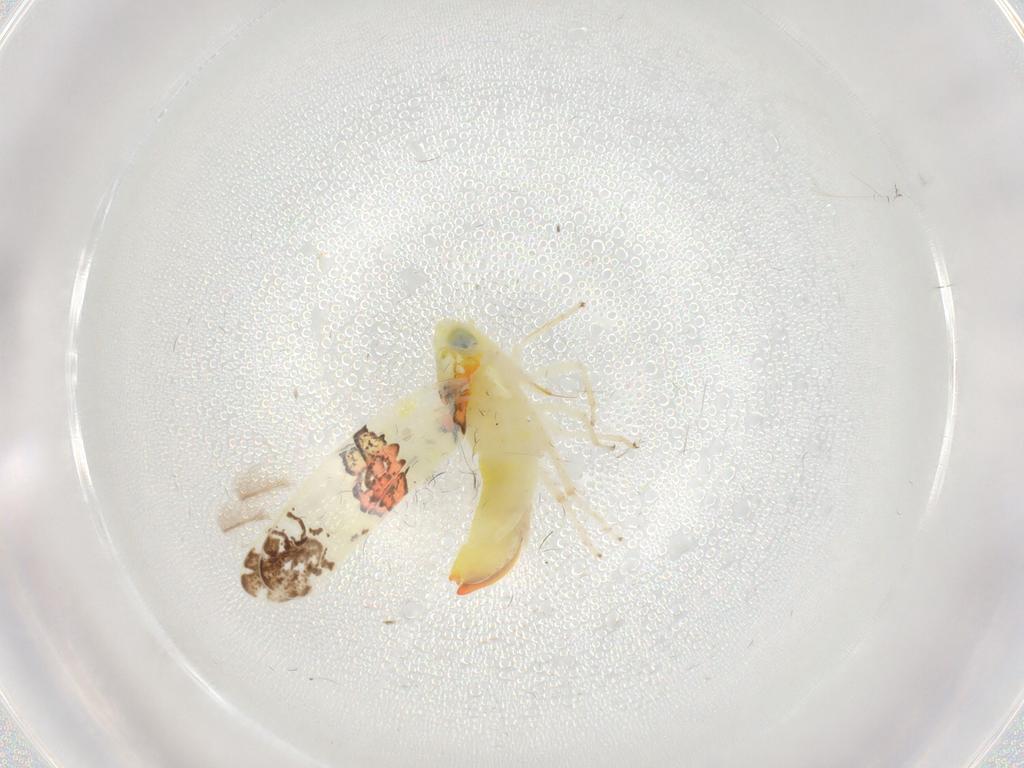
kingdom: Animalia
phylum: Arthropoda
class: Insecta
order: Hemiptera
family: Cicadellidae
